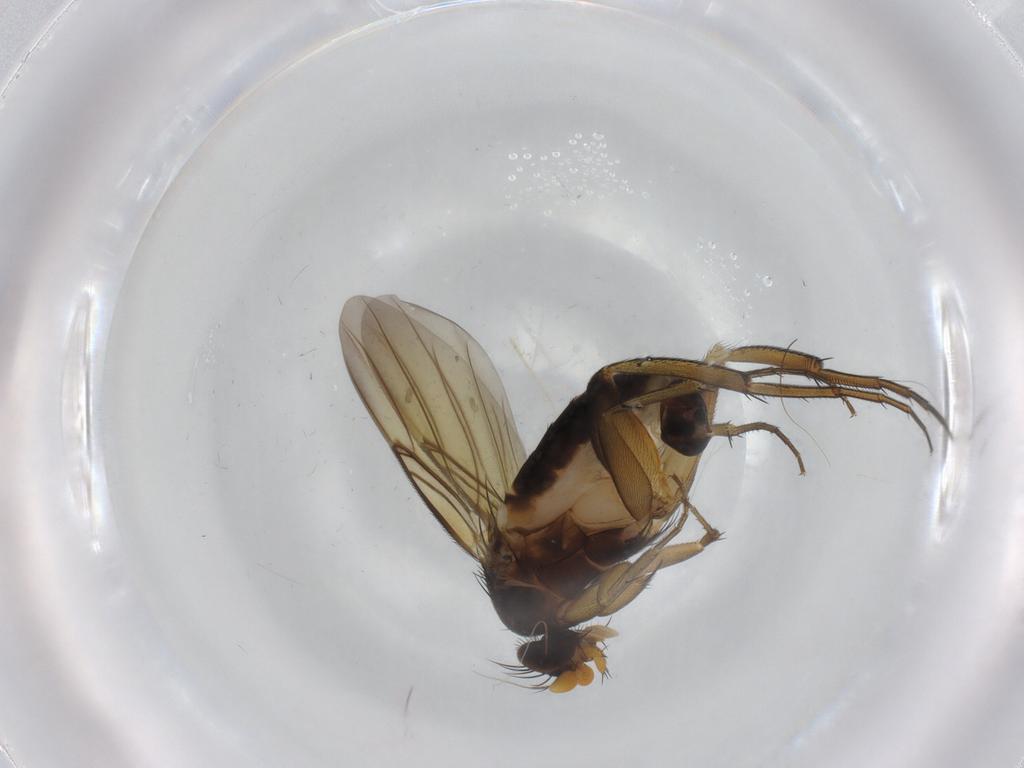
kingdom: Animalia
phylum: Arthropoda
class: Insecta
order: Diptera
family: Phoridae
